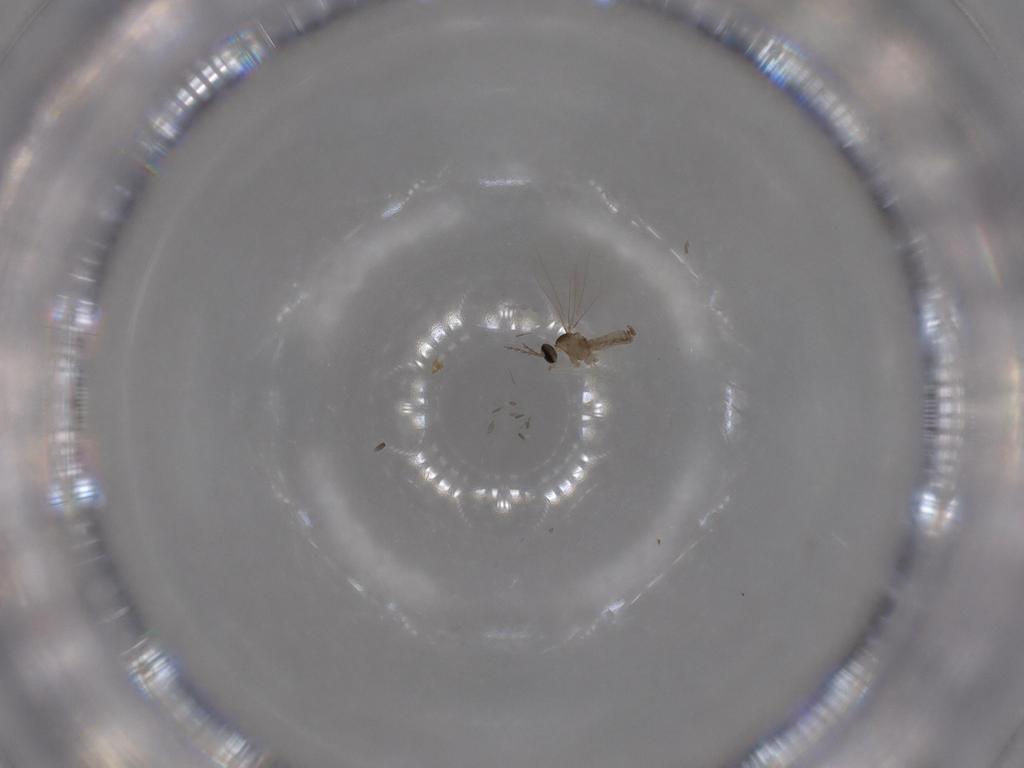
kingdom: Animalia
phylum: Arthropoda
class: Insecta
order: Diptera
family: Cecidomyiidae
